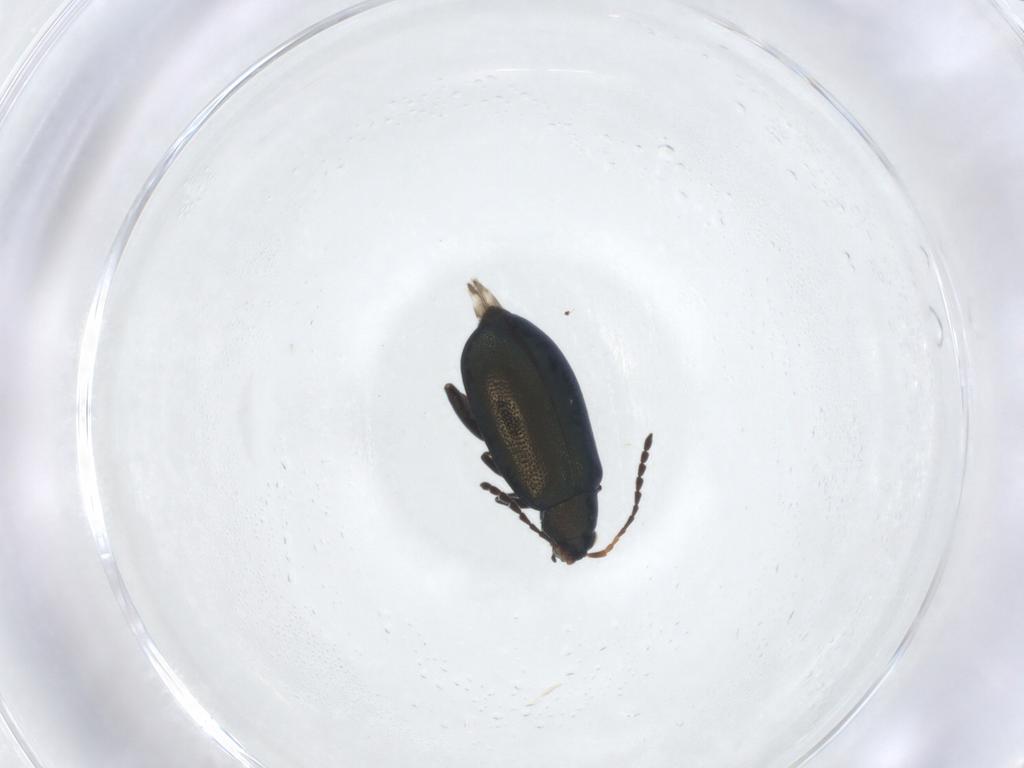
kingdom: Animalia
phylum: Arthropoda
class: Insecta
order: Coleoptera
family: Chrysomelidae
